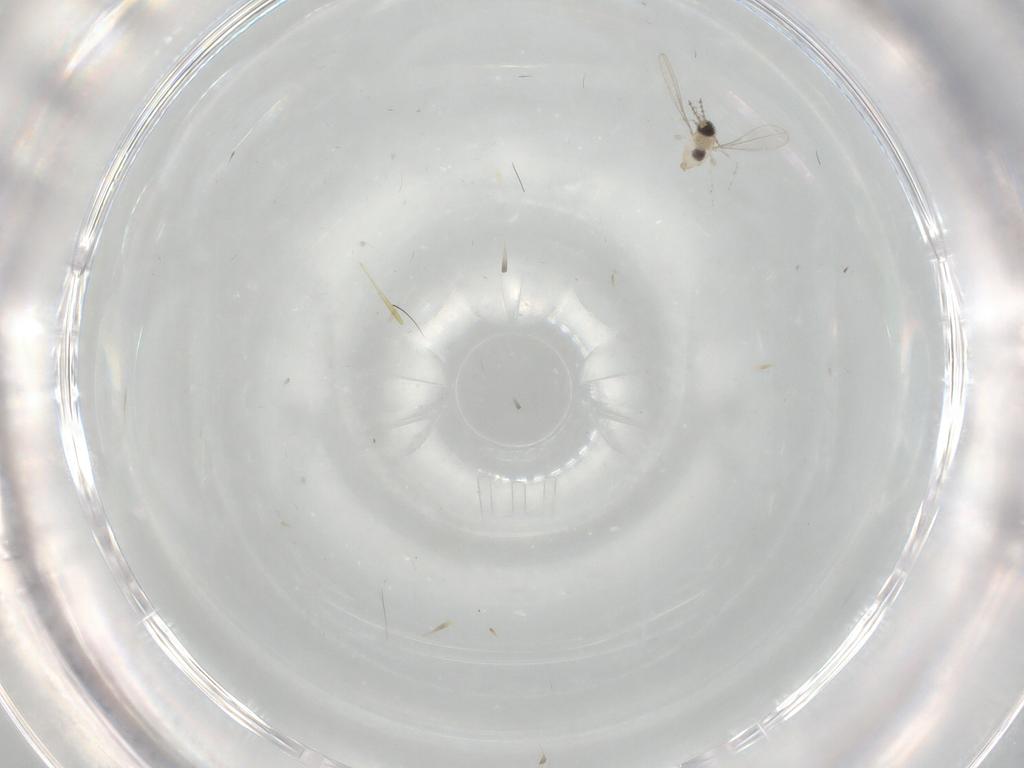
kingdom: Animalia
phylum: Arthropoda
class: Insecta
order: Diptera
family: Cecidomyiidae
